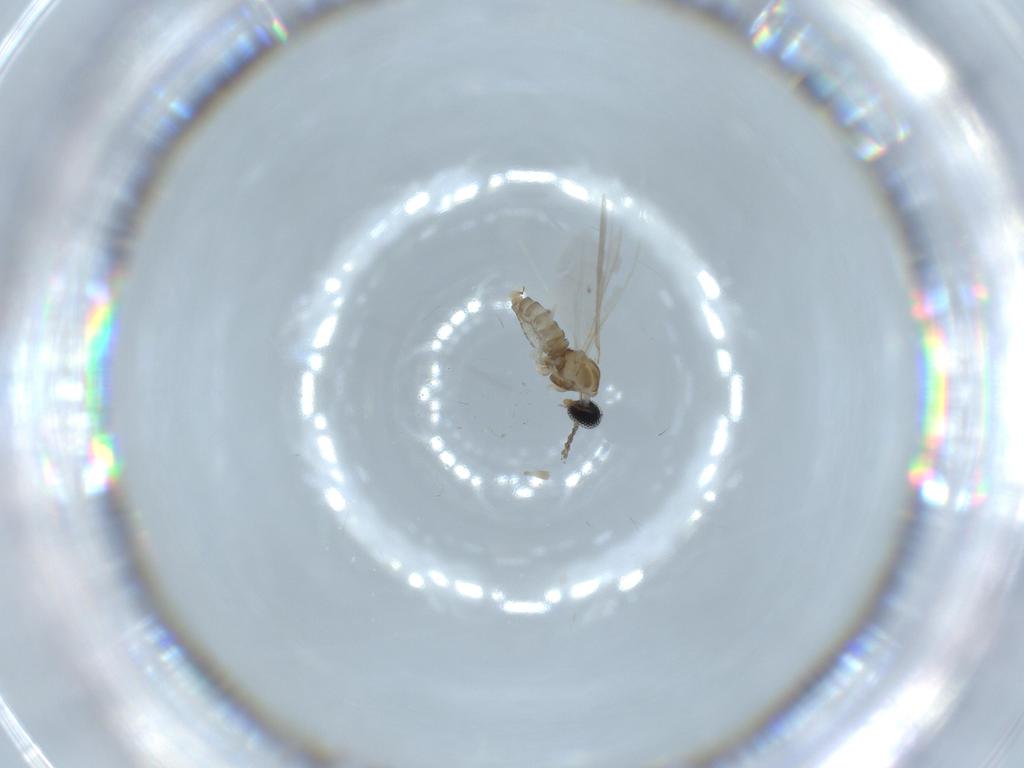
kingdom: Animalia
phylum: Arthropoda
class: Insecta
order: Diptera
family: Cecidomyiidae
